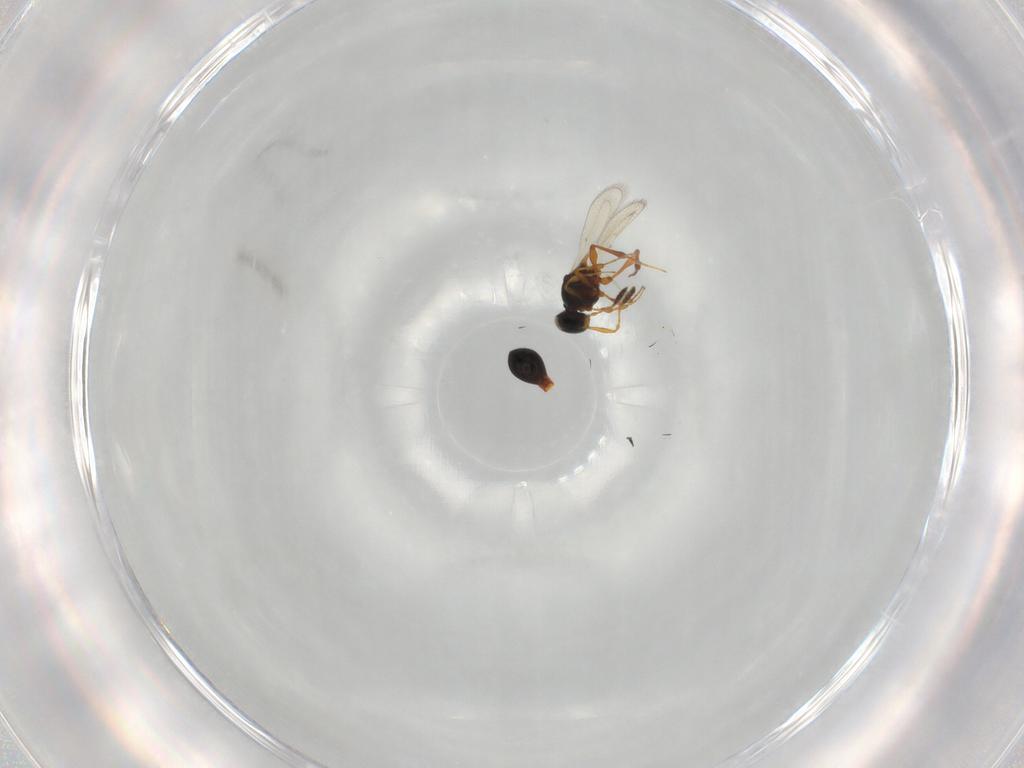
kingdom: Animalia
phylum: Arthropoda
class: Insecta
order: Hymenoptera
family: Platygastridae
